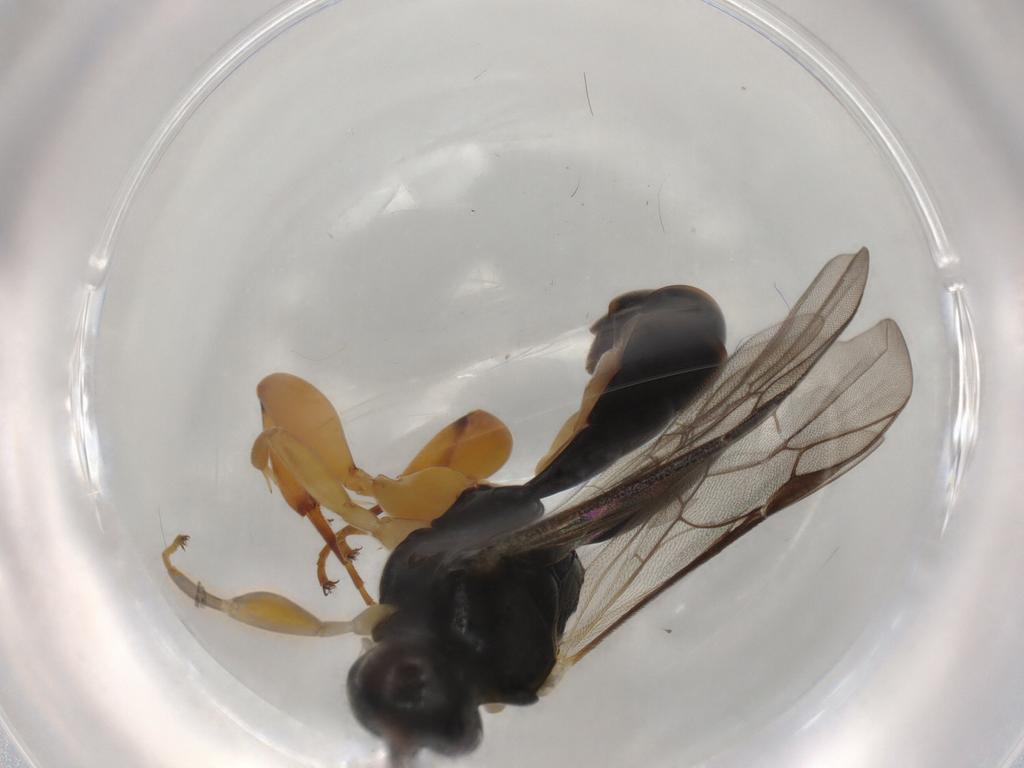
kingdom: Animalia
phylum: Arthropoda
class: Insecta
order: Hymenoptera
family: Ichneumonidae
